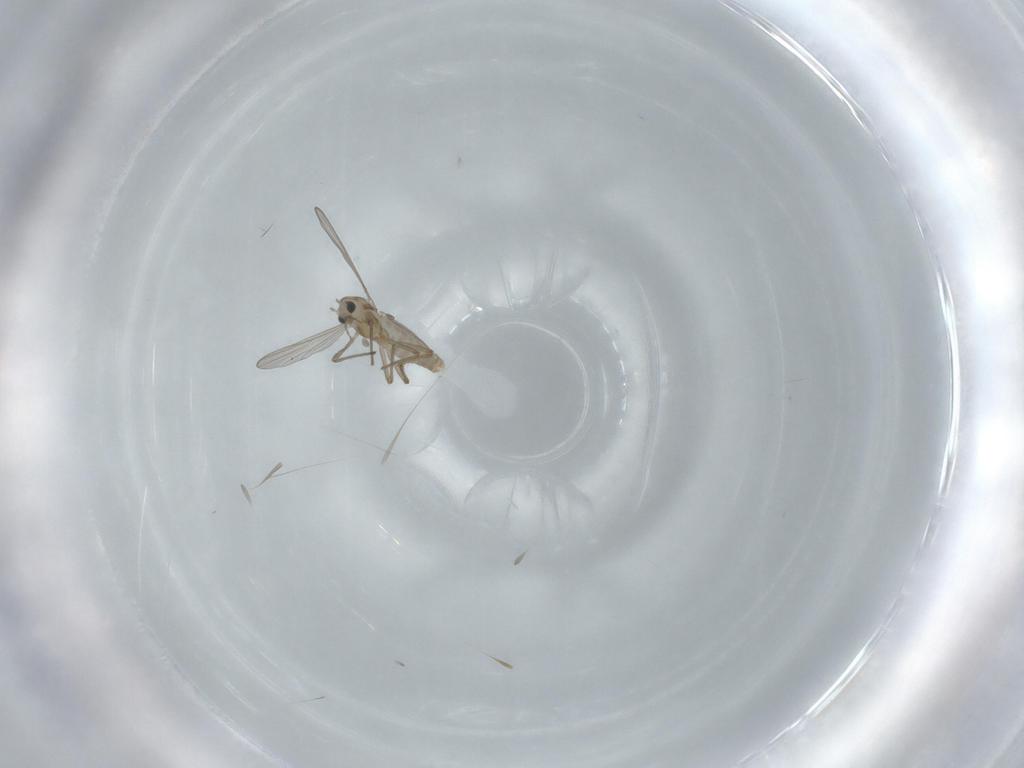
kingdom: Animalia
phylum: Arthropoda
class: Insecta
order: Diptera
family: Chironomidae
